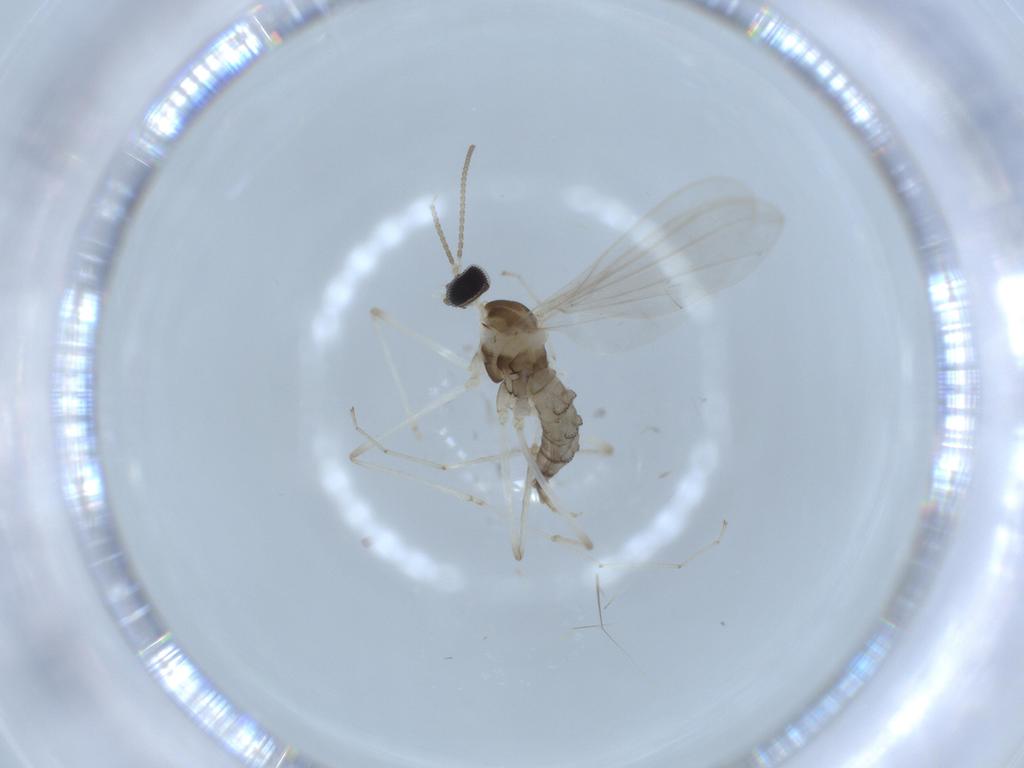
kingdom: Animalia
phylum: Arthropoda
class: Insecta
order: Diptera
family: Cecidomyiidae
